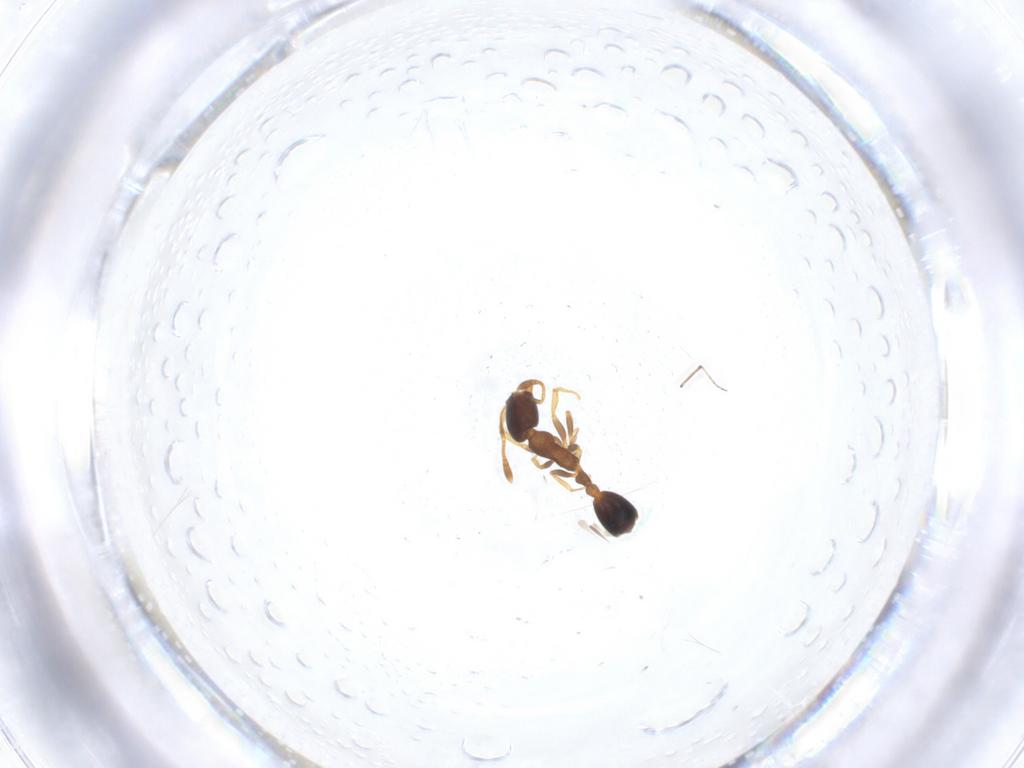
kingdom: Animalia
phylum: Arthropoda
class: Insecta
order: Hymenoptera
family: Formicidae
